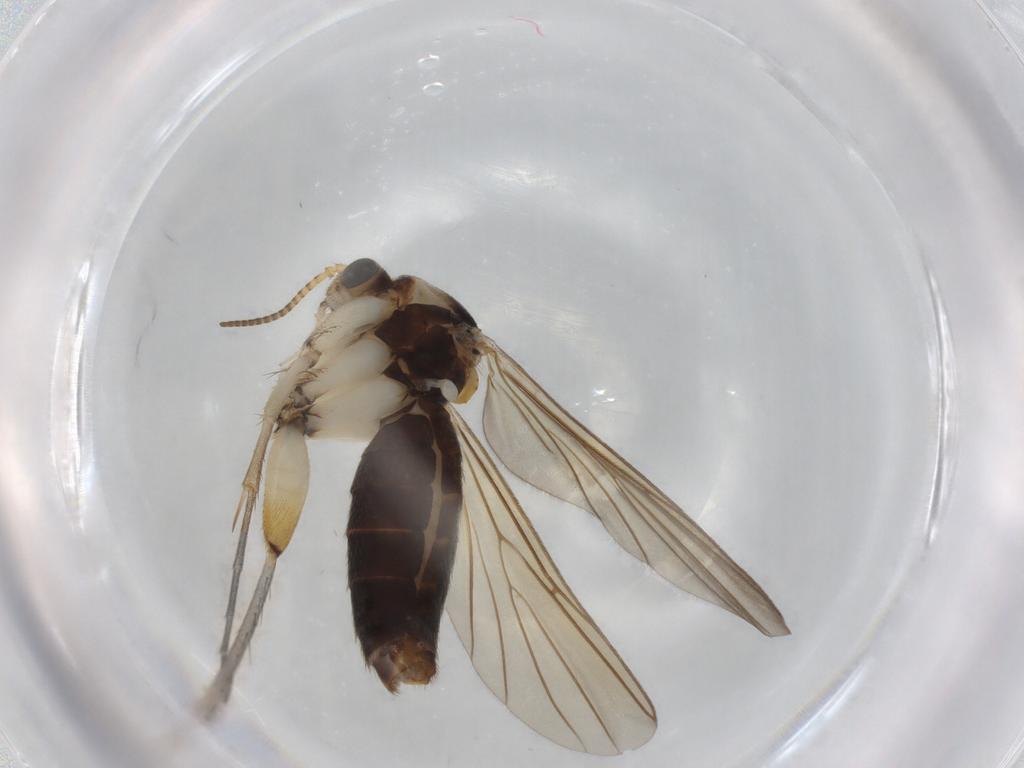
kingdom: Animalia
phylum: Arthropoda
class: Insecta
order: Diptera
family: Mycetophilidae
